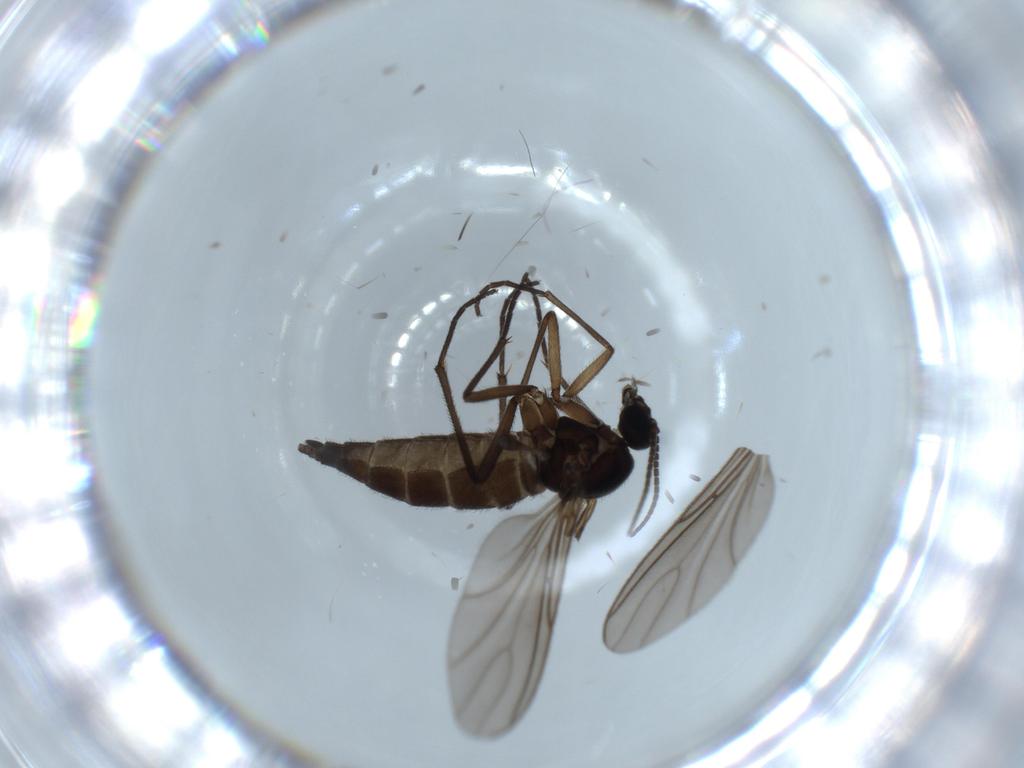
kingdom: Animalia
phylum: Arthropoda
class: Insecta
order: Diptera
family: Sciaridae
